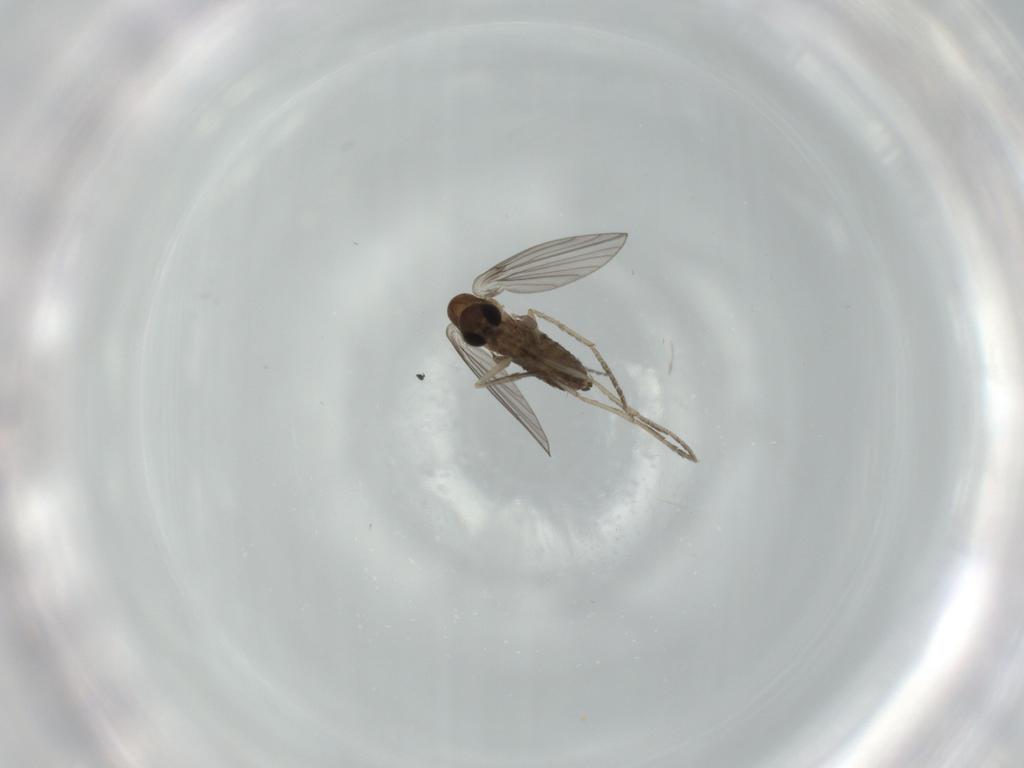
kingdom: Animalia
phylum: Arthropoda
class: Insecta
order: Diptera
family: Psychodidae
